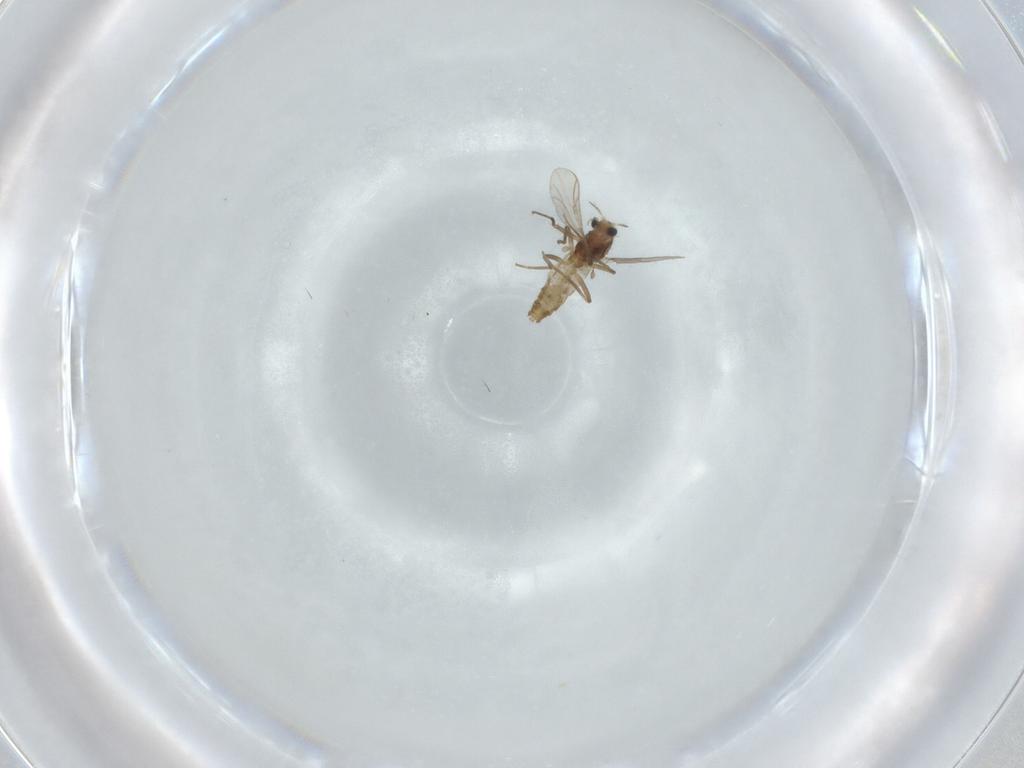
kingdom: Animalia
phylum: Arthropoda
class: Insecta
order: Diptera
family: Chironomidae
